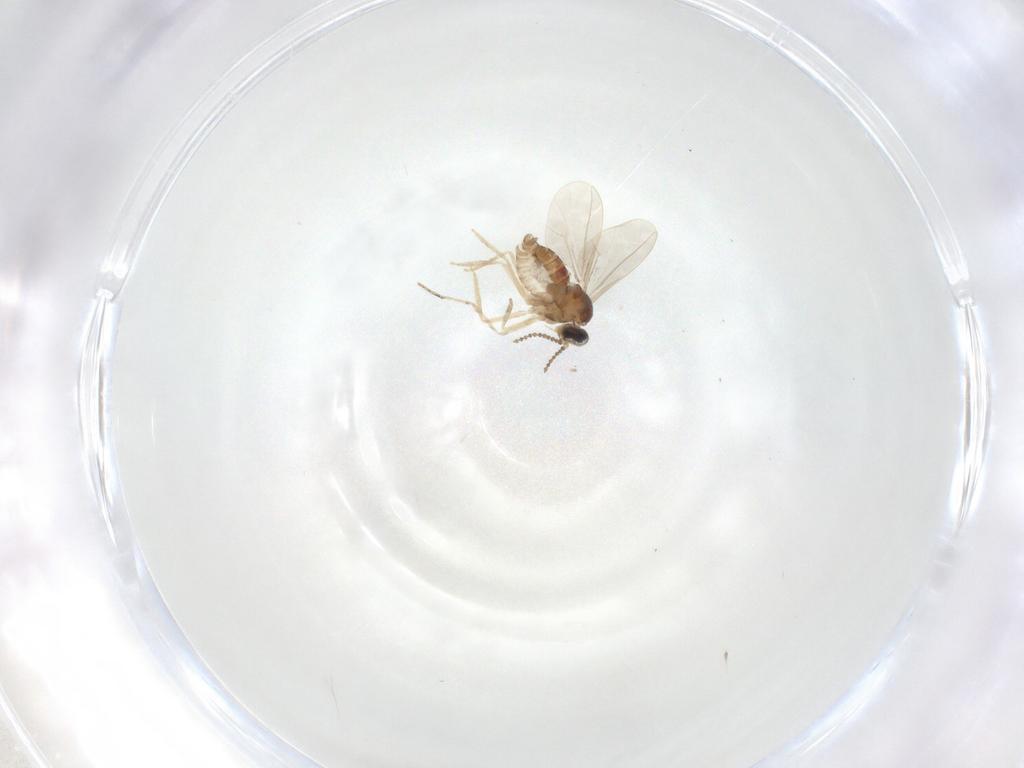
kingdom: Animalia
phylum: Arthropoda
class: Insecta
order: Diptera
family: Cecidomyiidae
